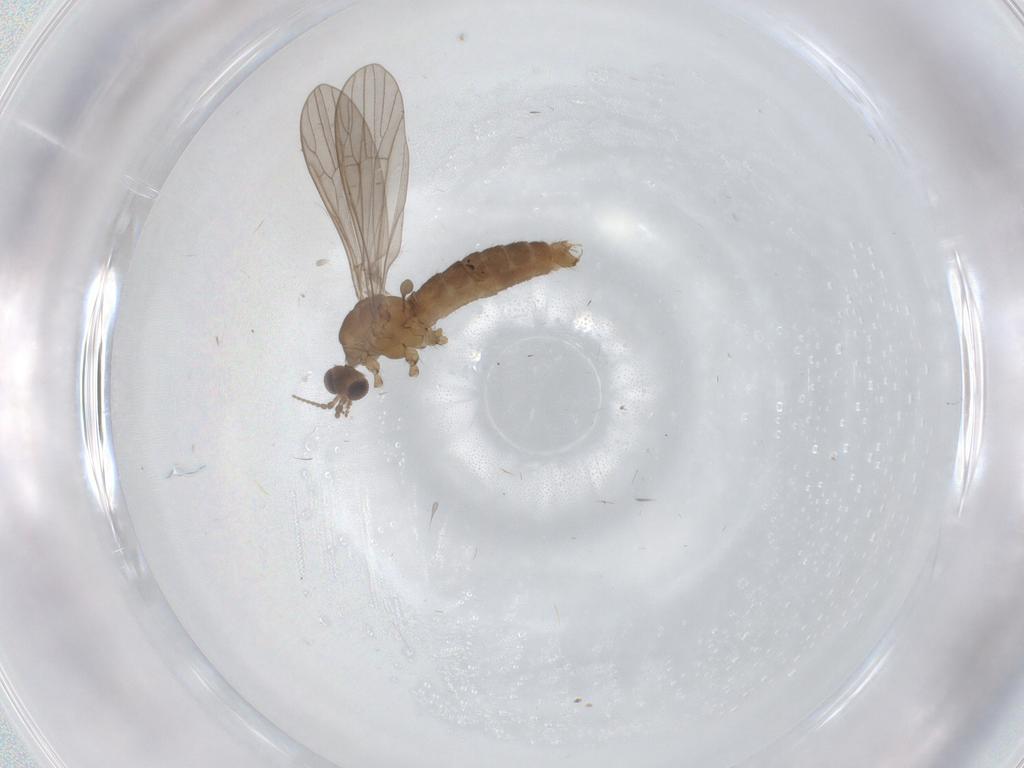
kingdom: Animalia
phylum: Arthropoda
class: Insecta
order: Diptera
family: Limoniidae
